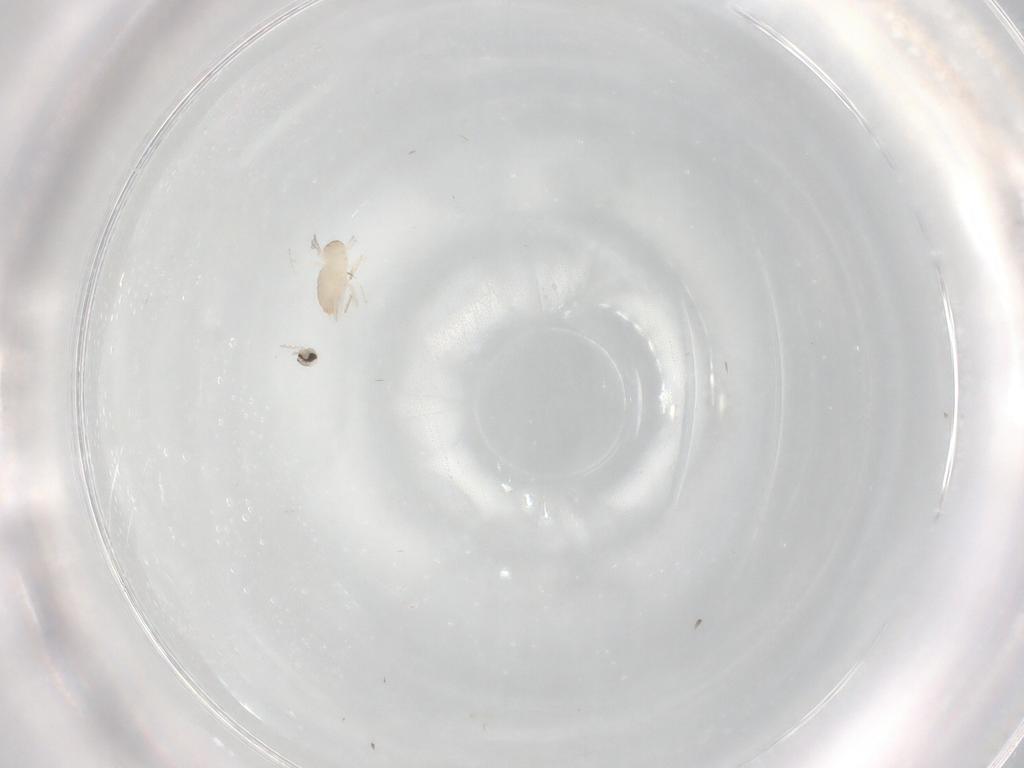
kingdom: Animalia
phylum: Arthropoda
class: Insecta
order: Diptera
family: Cecidomyiidae
